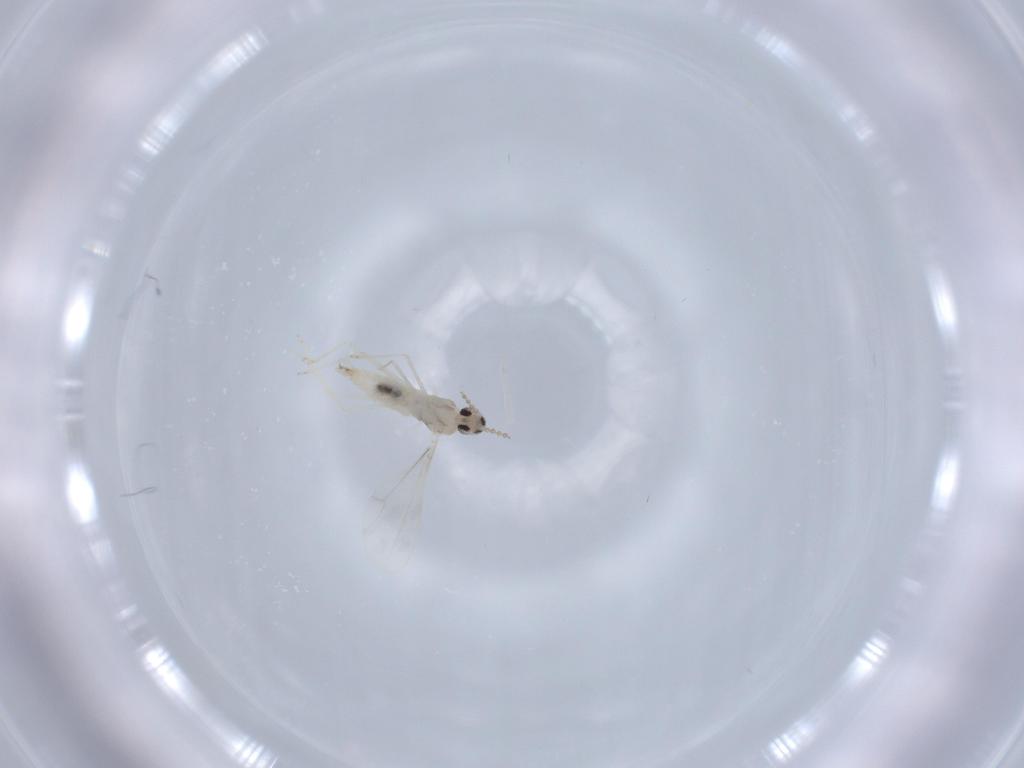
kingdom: Animalia
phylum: Arthropoda
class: Insecta
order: Diptera
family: Cecidomyiidae
